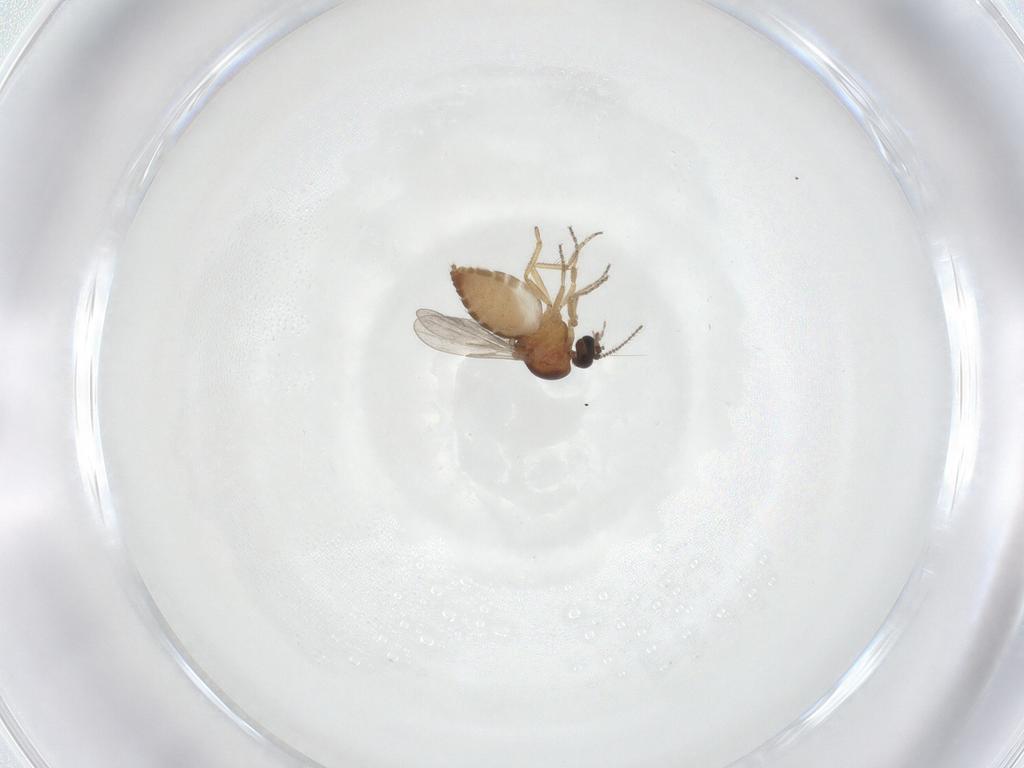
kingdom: Animalia
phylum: Arthropoda
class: Insecta
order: Diptera
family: Ceratopogonidae
